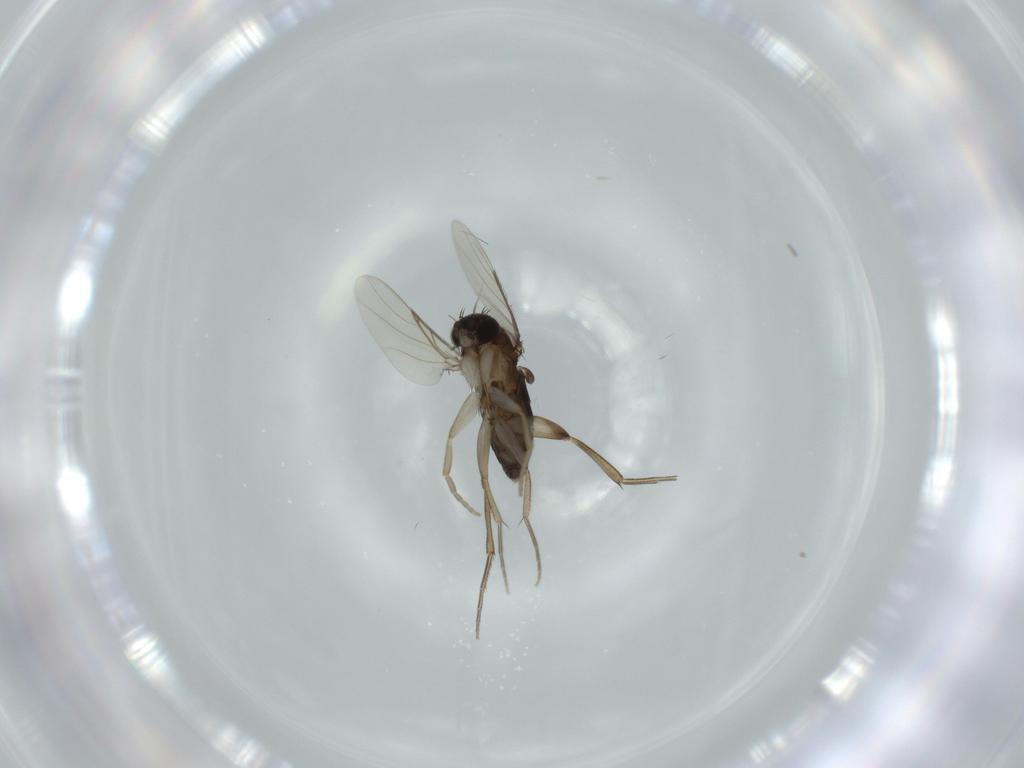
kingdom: Animalia
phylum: Arthropoda
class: Insecta
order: Diptera
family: Phoridae
